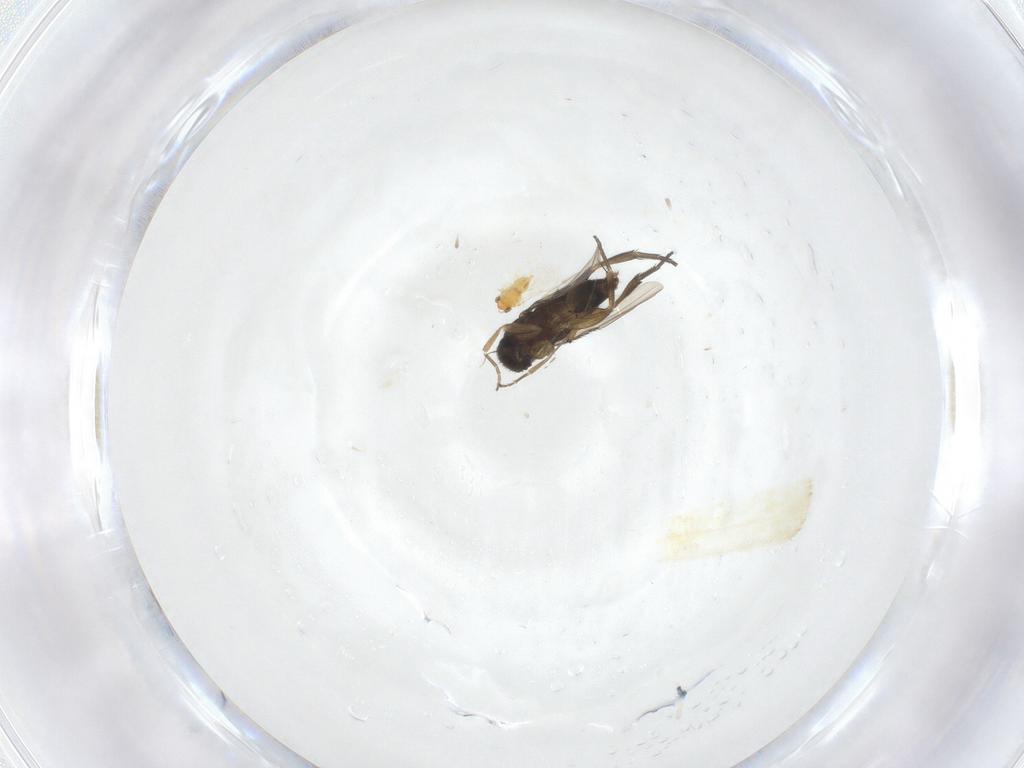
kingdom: Animalia
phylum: Arthropoda
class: Insecta
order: Diptera
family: Phoridae
